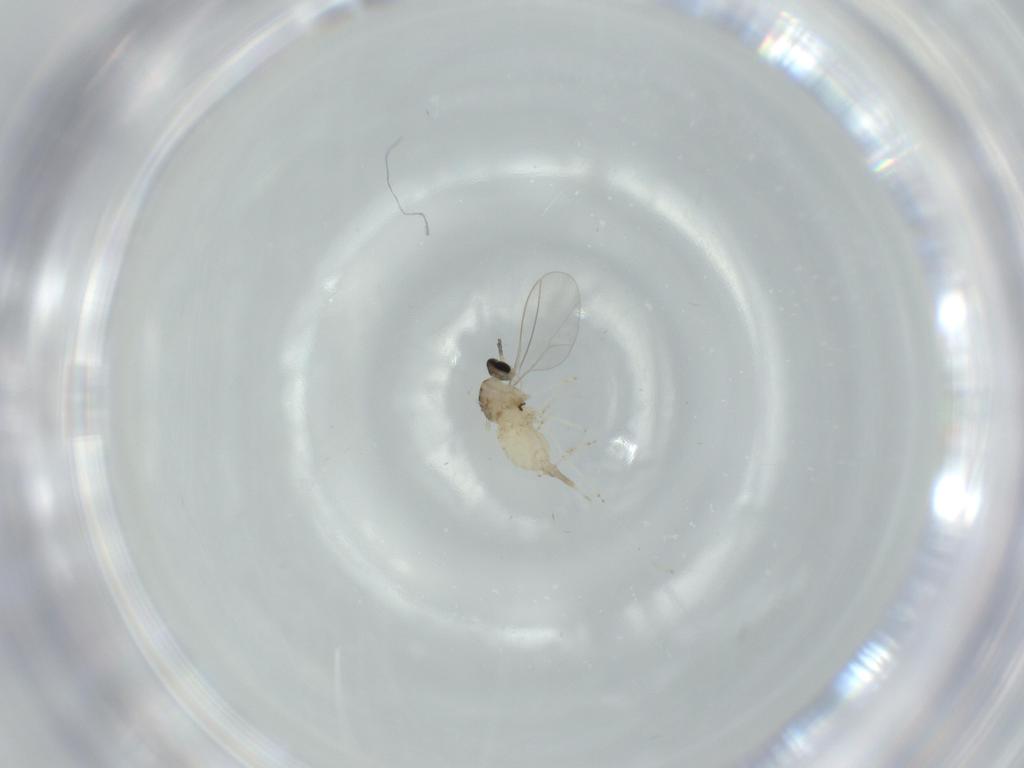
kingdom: Animalia
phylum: Arthropoda
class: Insecta
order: Diptera
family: Cecidomyiidae
